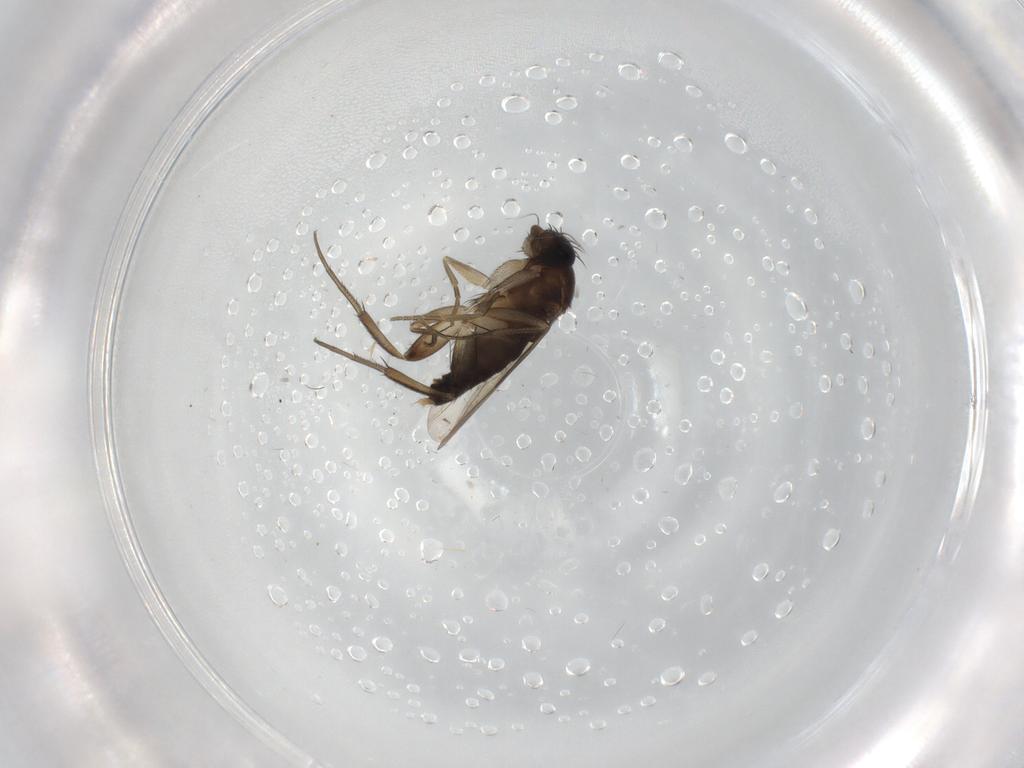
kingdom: Animalia
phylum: Arthropoda
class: Insecta
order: Diptera
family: Phoridae
